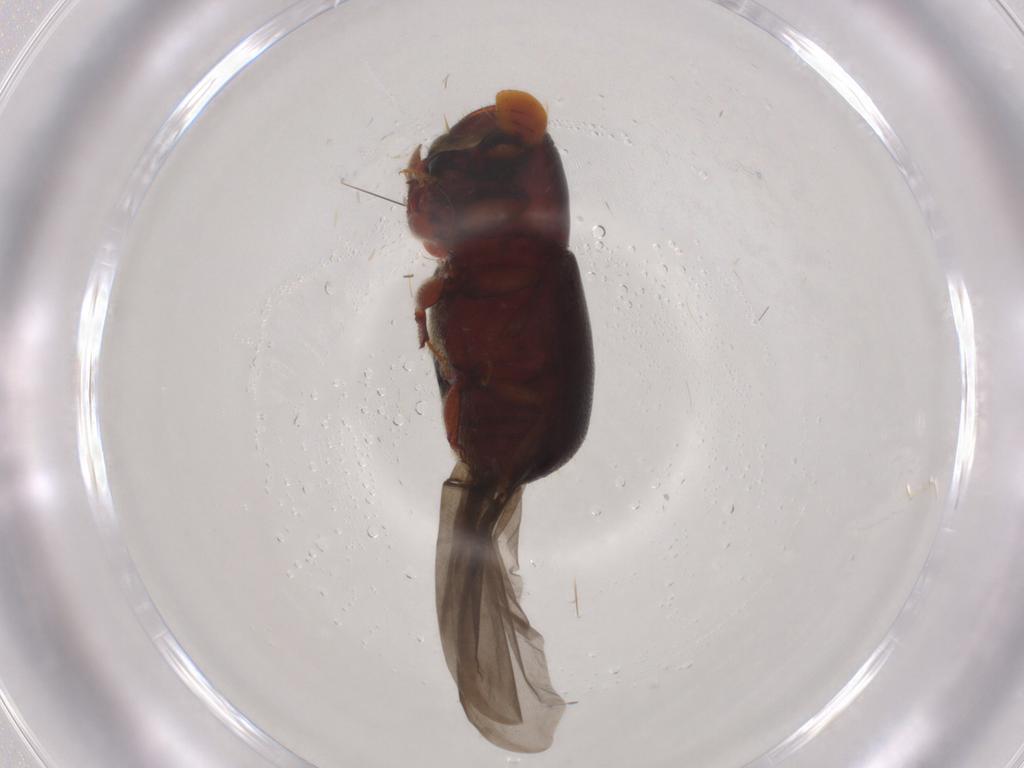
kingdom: Animalia
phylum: Arthropoda
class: Insecta
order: Coleoptera
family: Curculionidae
